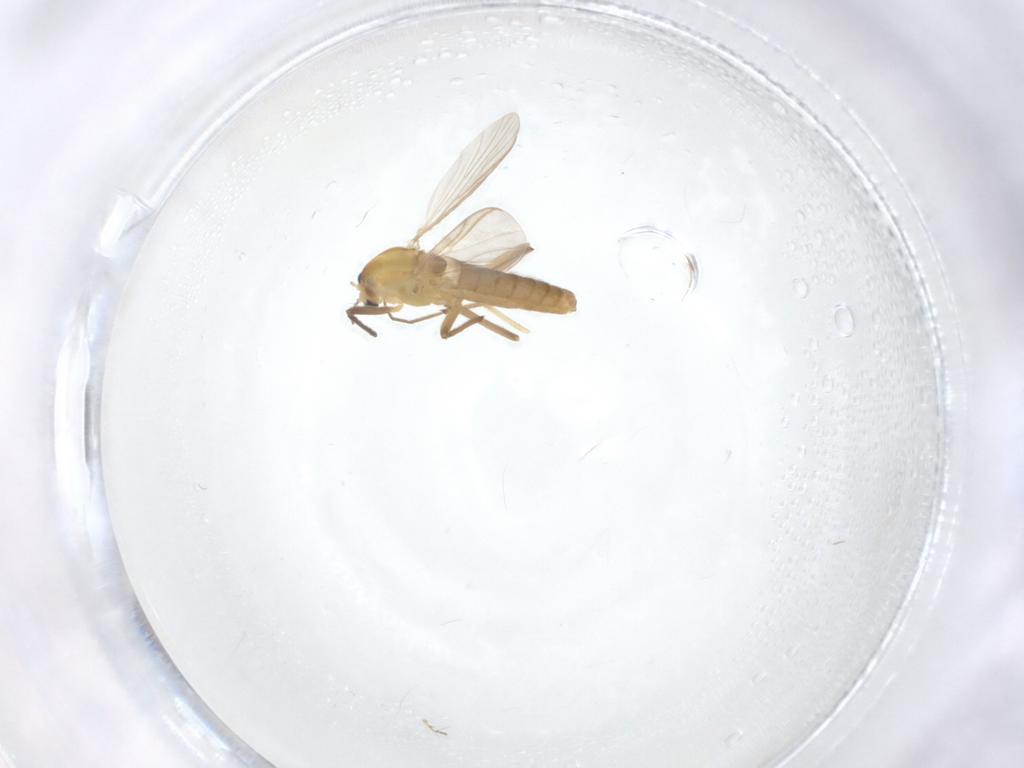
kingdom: Animalia
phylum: Arthropoda
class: Insecta
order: Diptera
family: Chironomidae
